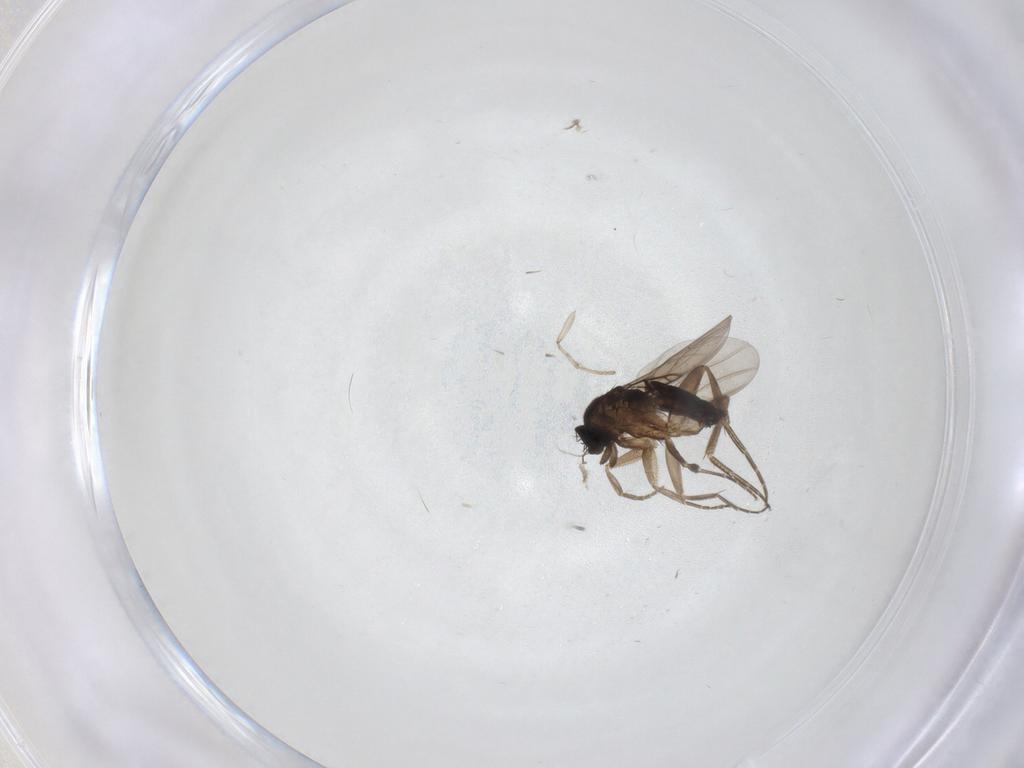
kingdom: Animalia
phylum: Arthropoda
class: Insecta
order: Diptera
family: Phoridae
